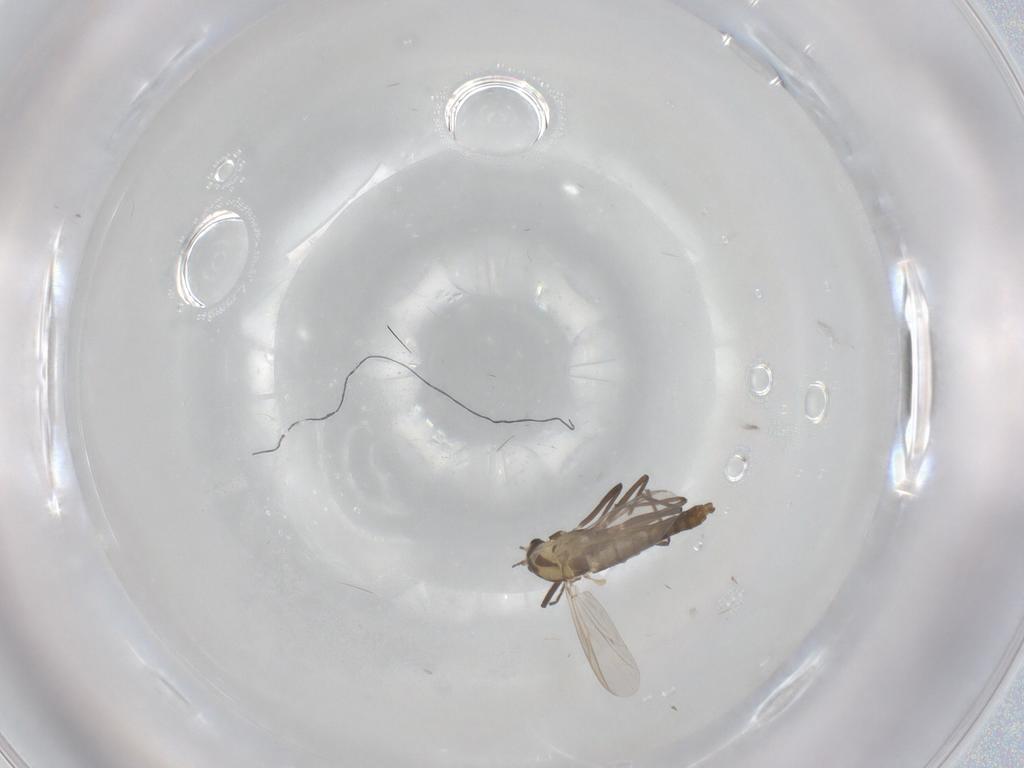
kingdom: Animalia
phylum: Arthropoda
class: Insecta
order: Diptera
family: Chironomidae
